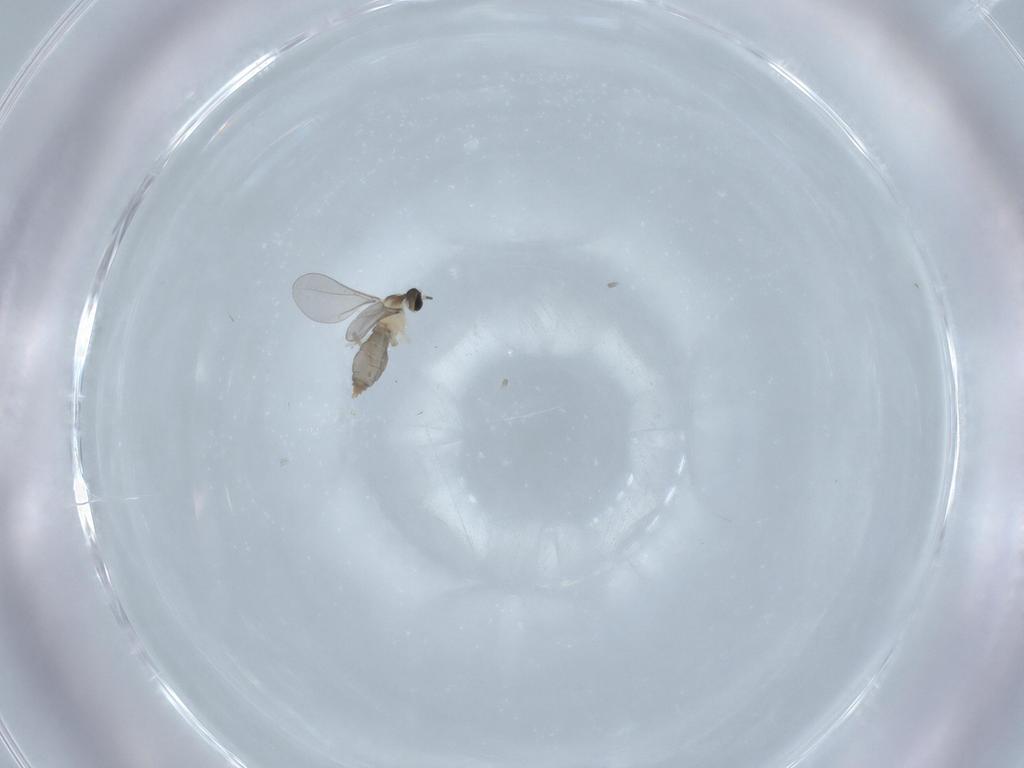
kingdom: Animalia
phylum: Arthropoda
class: Insecta
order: Diptera
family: Cecidomyiidae
